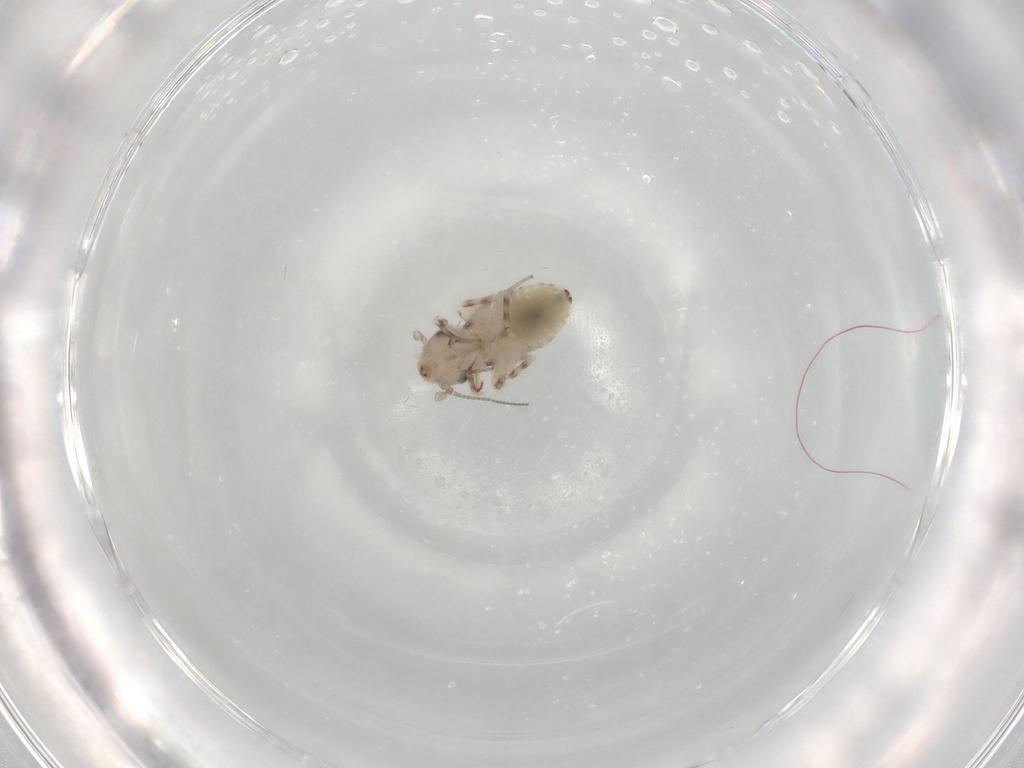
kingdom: Animalia
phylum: Arthropoda
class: Insecta
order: Psocodea
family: Lepidopsocidae
